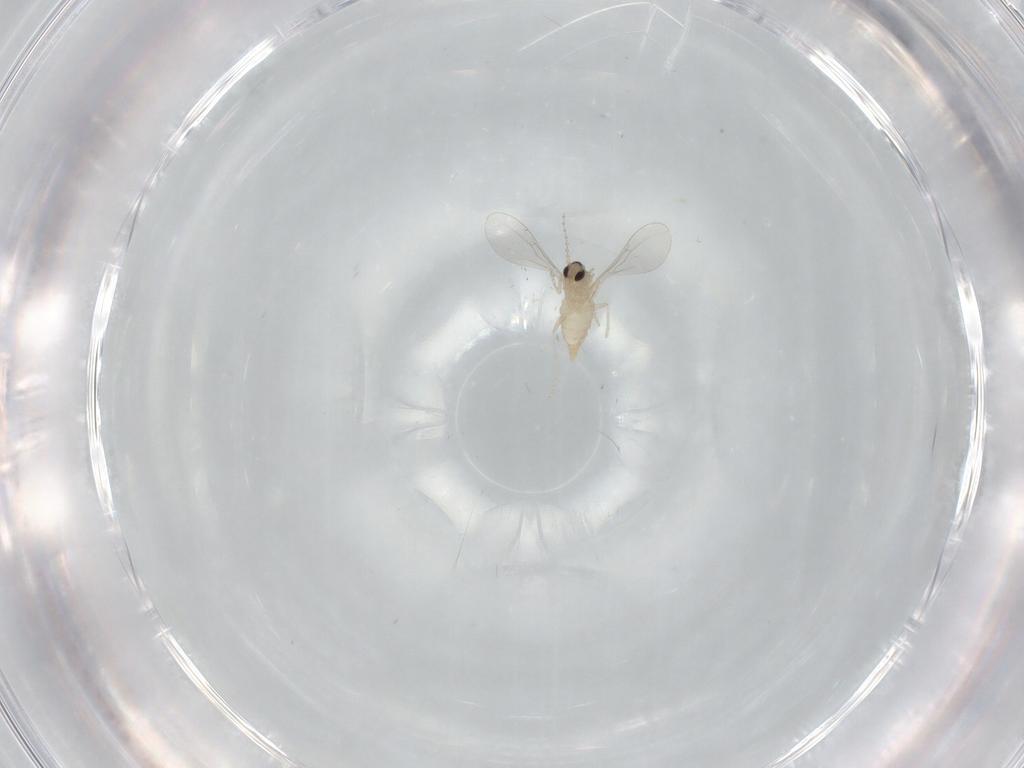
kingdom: Animalia
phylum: Arthropoda
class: Insecta
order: Diptera
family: Cecidomyiidae
